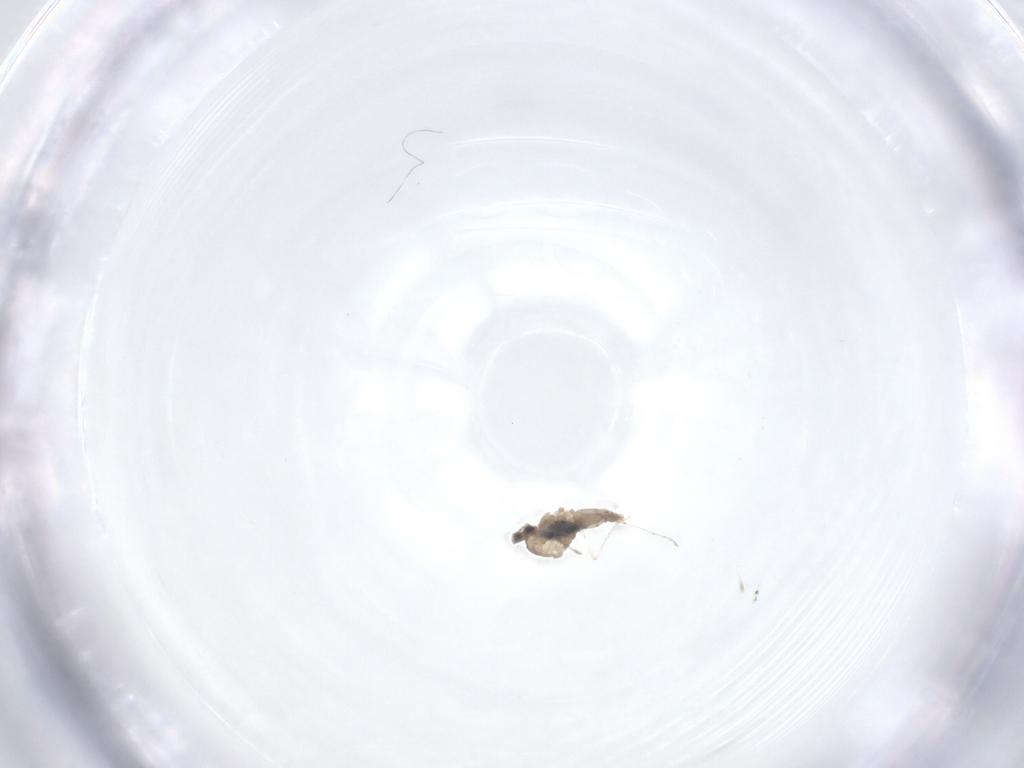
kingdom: Animalia
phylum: Arthropoda
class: Insecta
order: Diptera
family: Cecidomyiidae
